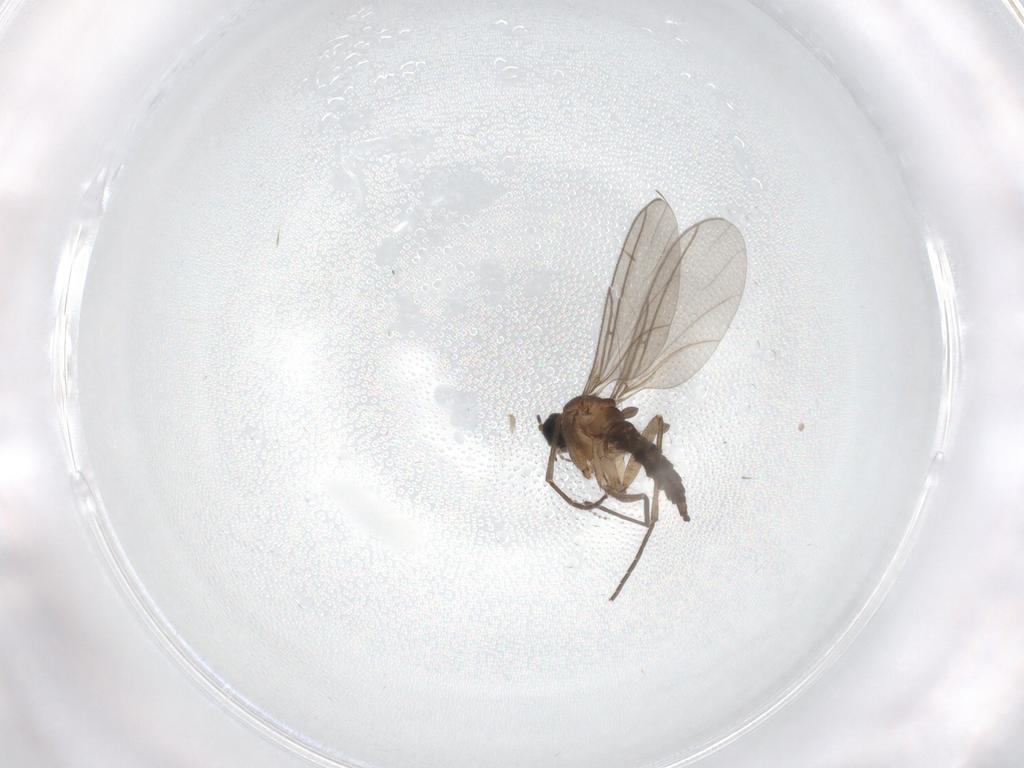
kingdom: Animalia
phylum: Arthropoda
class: Insecta
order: Diptera
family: Sciaridae
